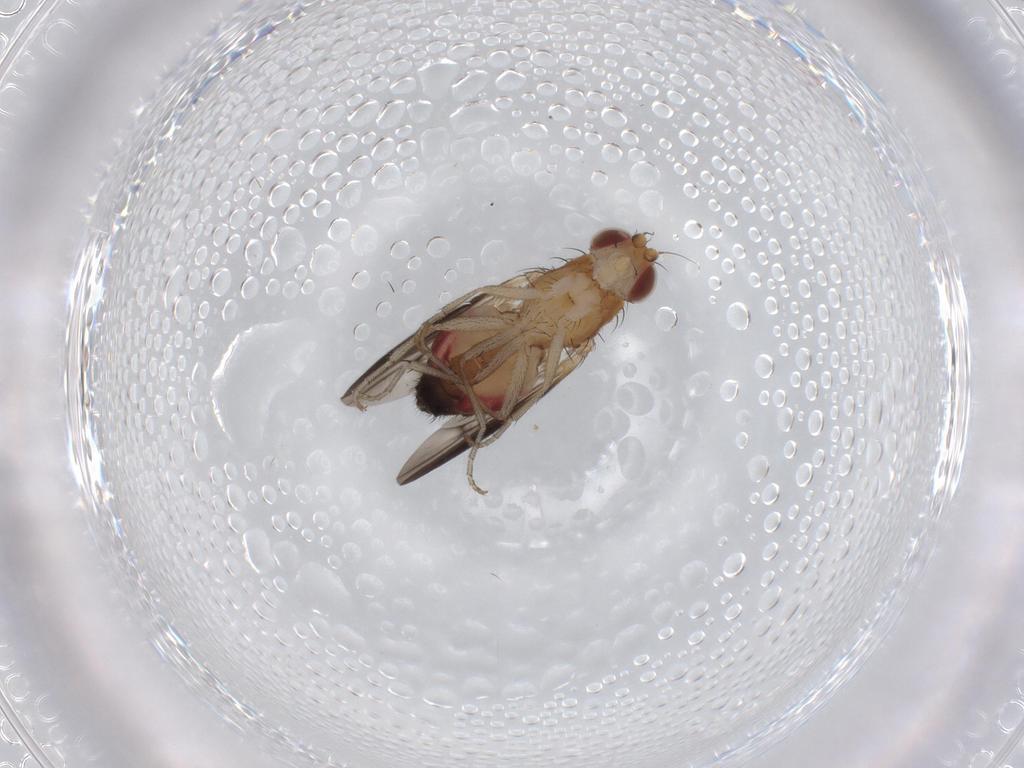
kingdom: Animalia
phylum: Arthropoda
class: Insecta
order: Diptera
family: Heleomyzidae
